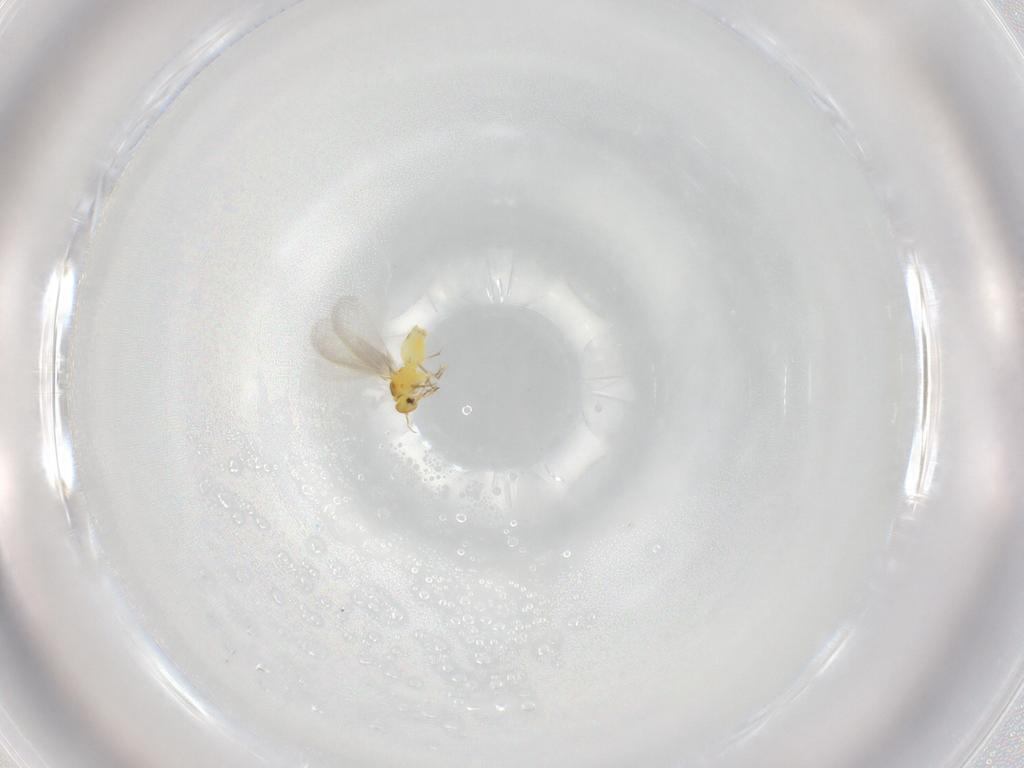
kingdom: Animalia
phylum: Arthropoda
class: Insecta
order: Hemiptera
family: Aleyrodidae
